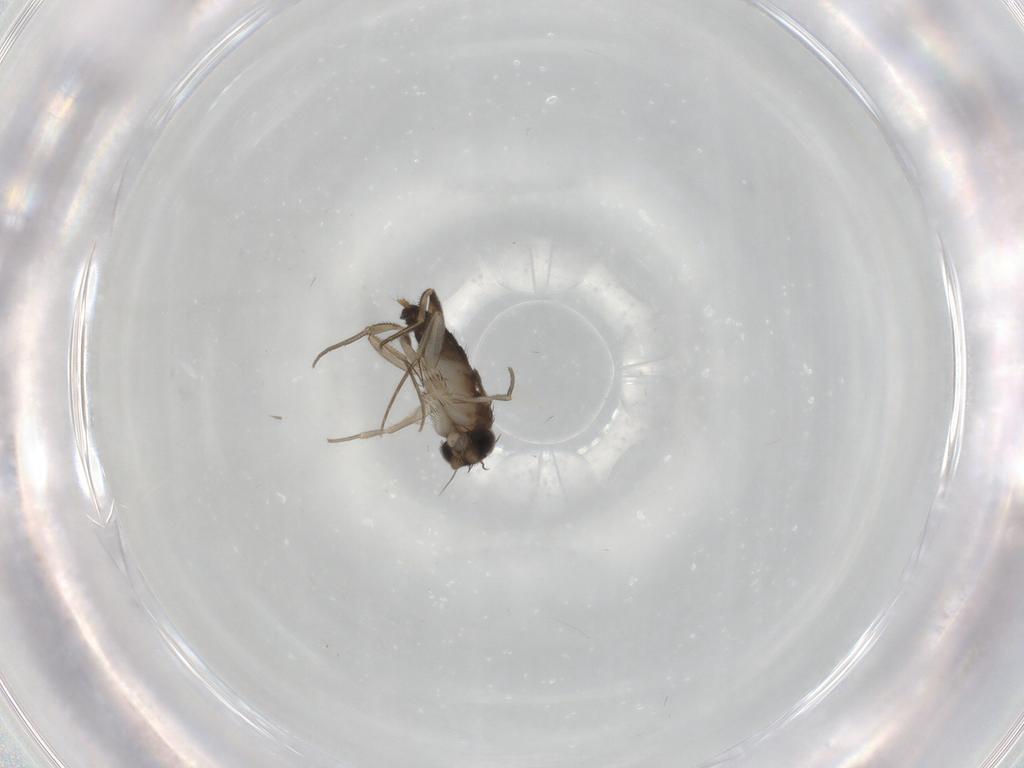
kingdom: Animalia
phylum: Arthropoda
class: Insecta
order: Diptera
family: Phoridae
